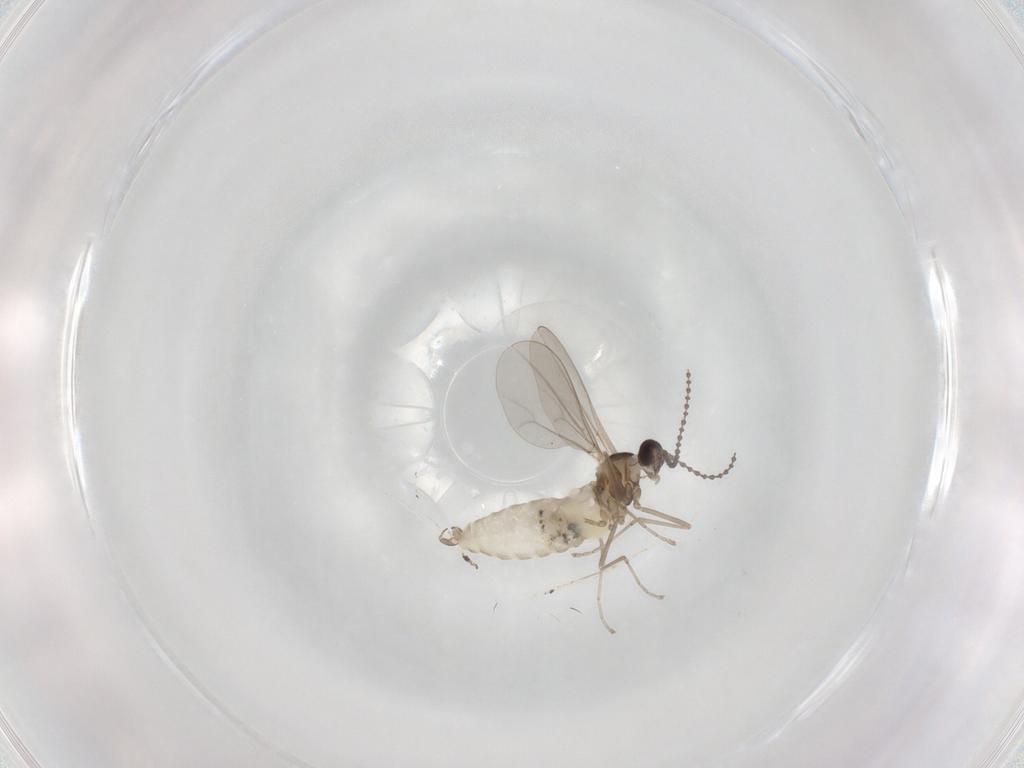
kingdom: Animalia
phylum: Arthropoda
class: Insecta
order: Diptera
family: Cecidomyiidae
